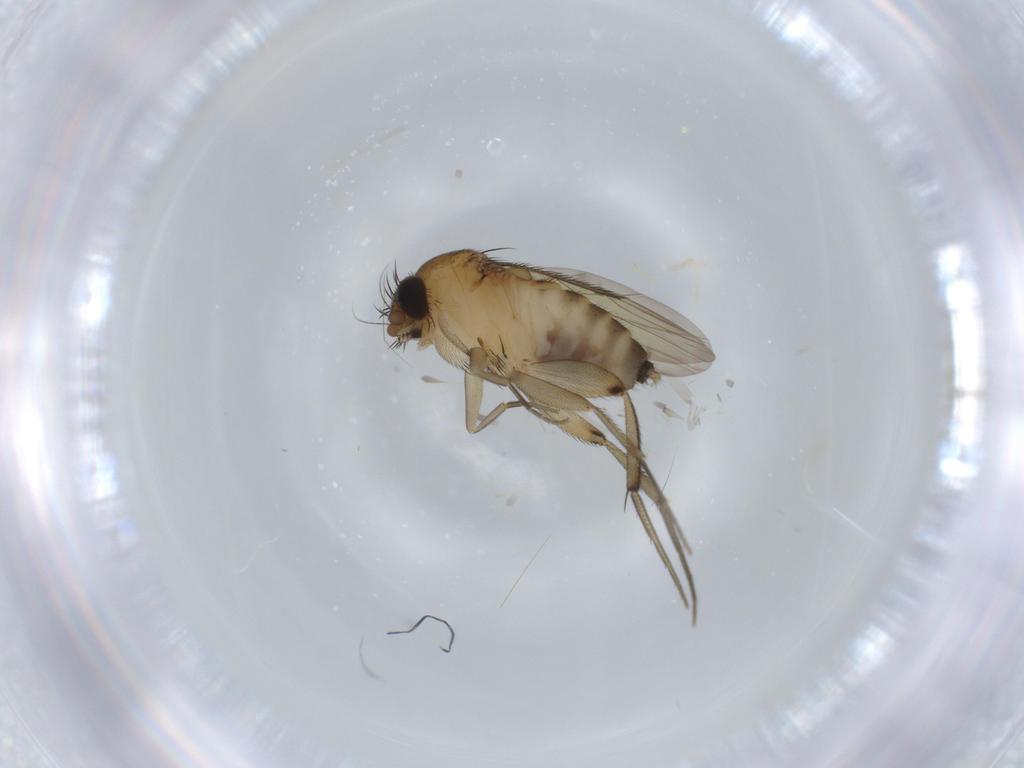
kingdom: Animalia
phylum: Arthropoda
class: Insecta
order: Diptera
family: Phoridae
